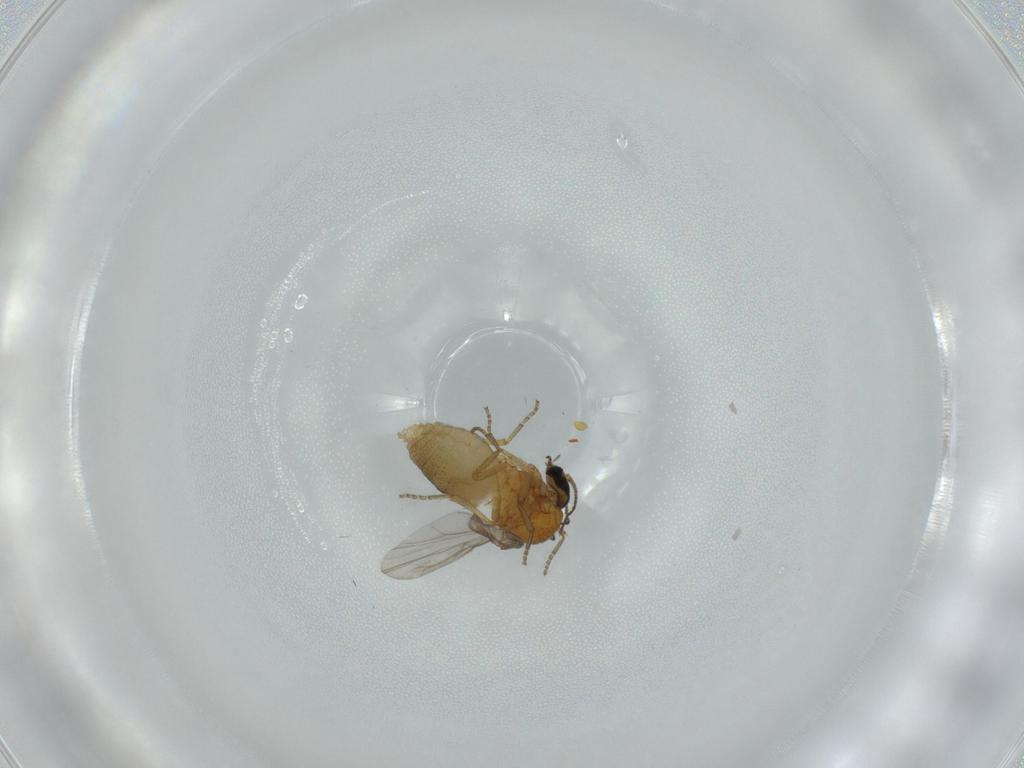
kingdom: Animalia
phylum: Arthropoda
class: Insecta
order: Diptera
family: Ceratopogonidae
